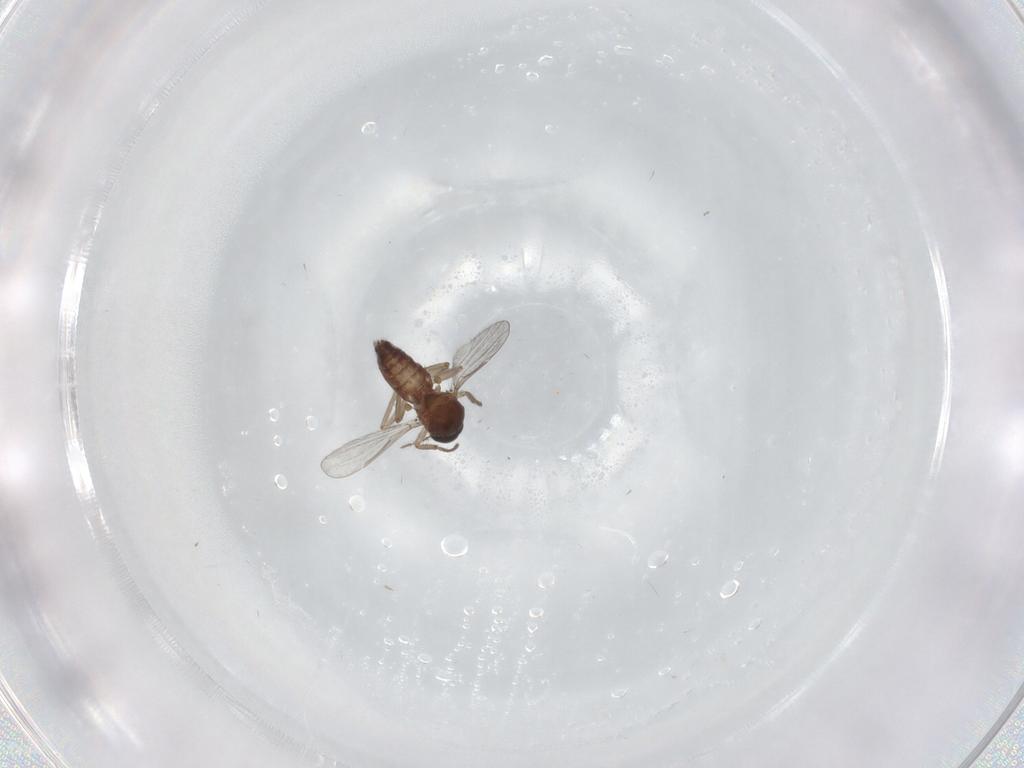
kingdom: Animalia
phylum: Arthropoda
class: Insecta
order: Diptera
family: Ceratopogonidae
